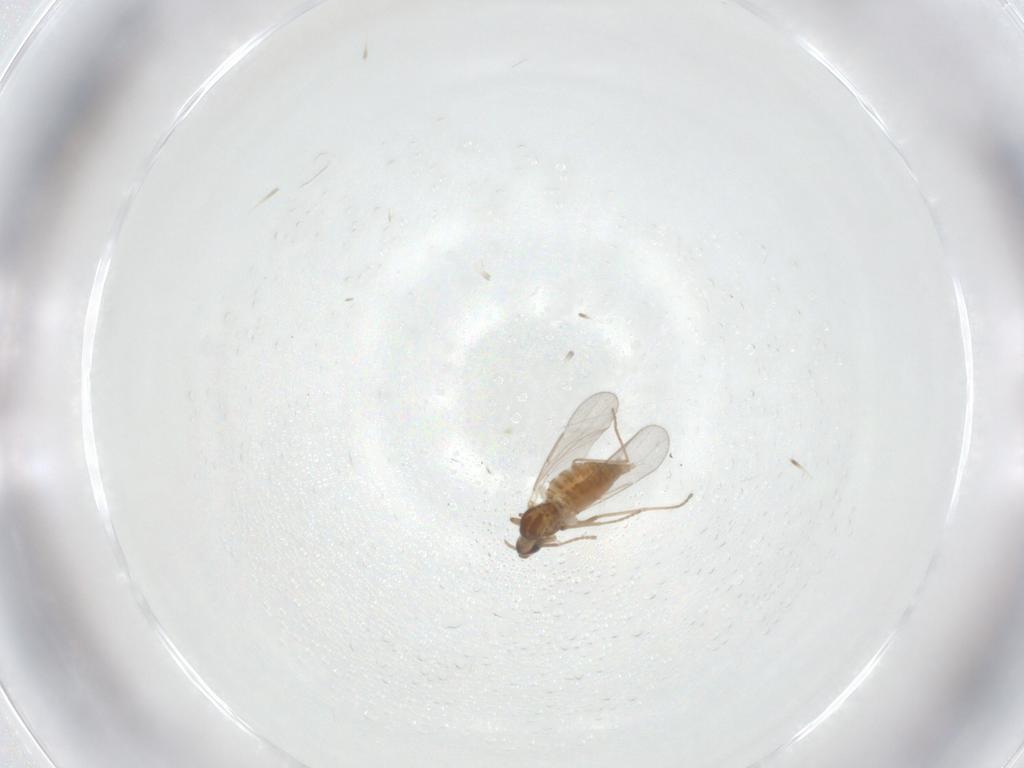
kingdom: Animalia
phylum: Arthropoda
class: Insecta
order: Diptera
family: Cecidomyiidae
